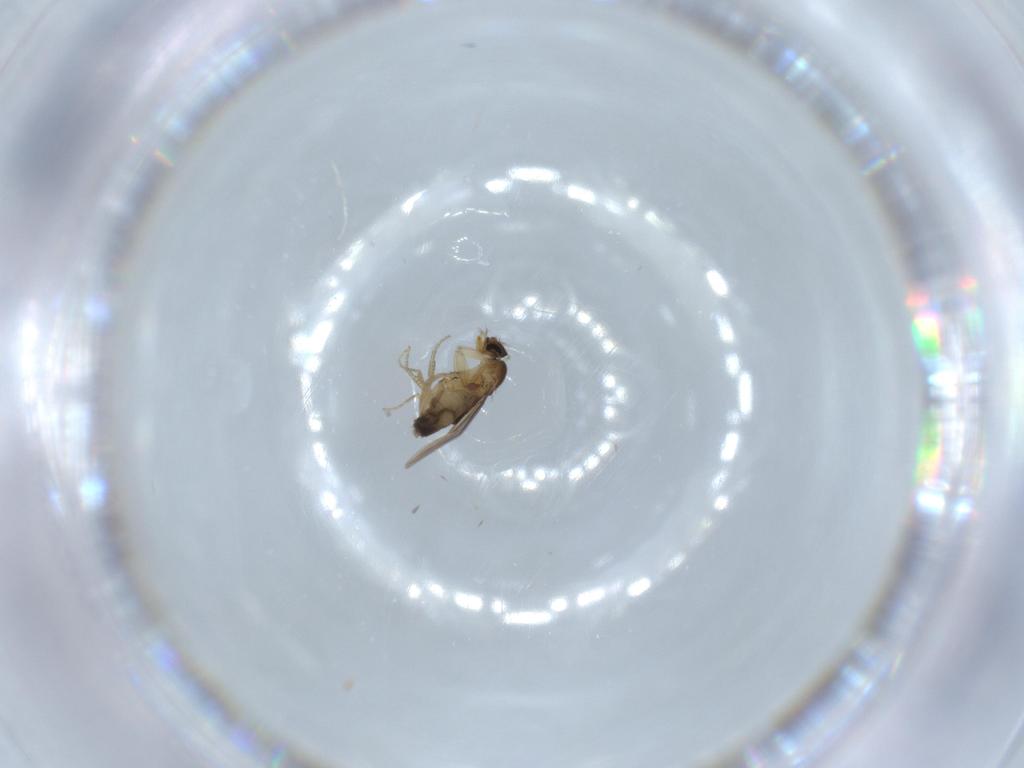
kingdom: Animalia
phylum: Arthropoda
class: Insecta
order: Diptera
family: Phoridae
